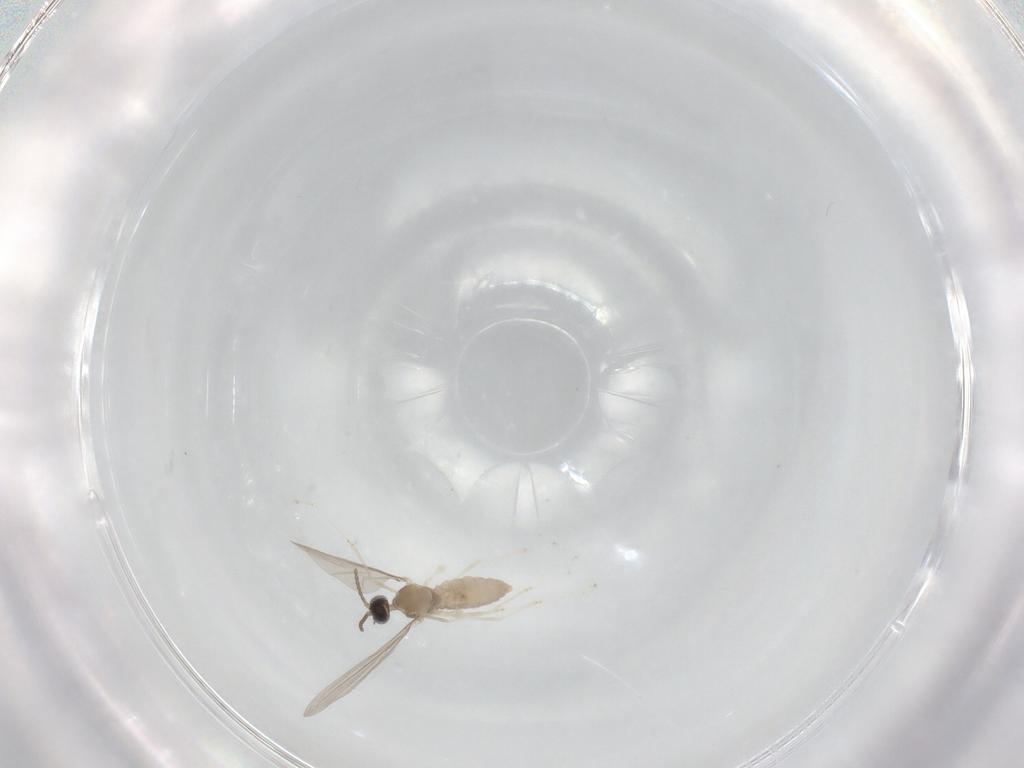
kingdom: Animalia
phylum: Arthropoda
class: Insecta
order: Diptera
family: Cecidomyiidae
